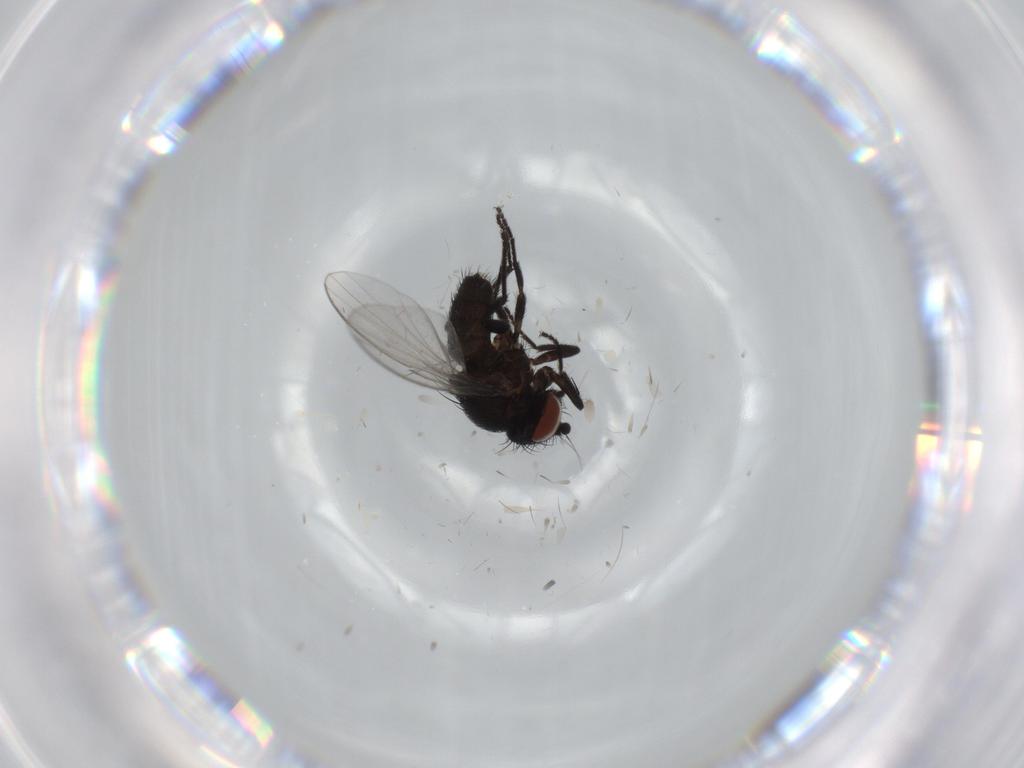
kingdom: Animalia
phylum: Arthropoda
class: Insecta
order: Diptera
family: Milichiidae
